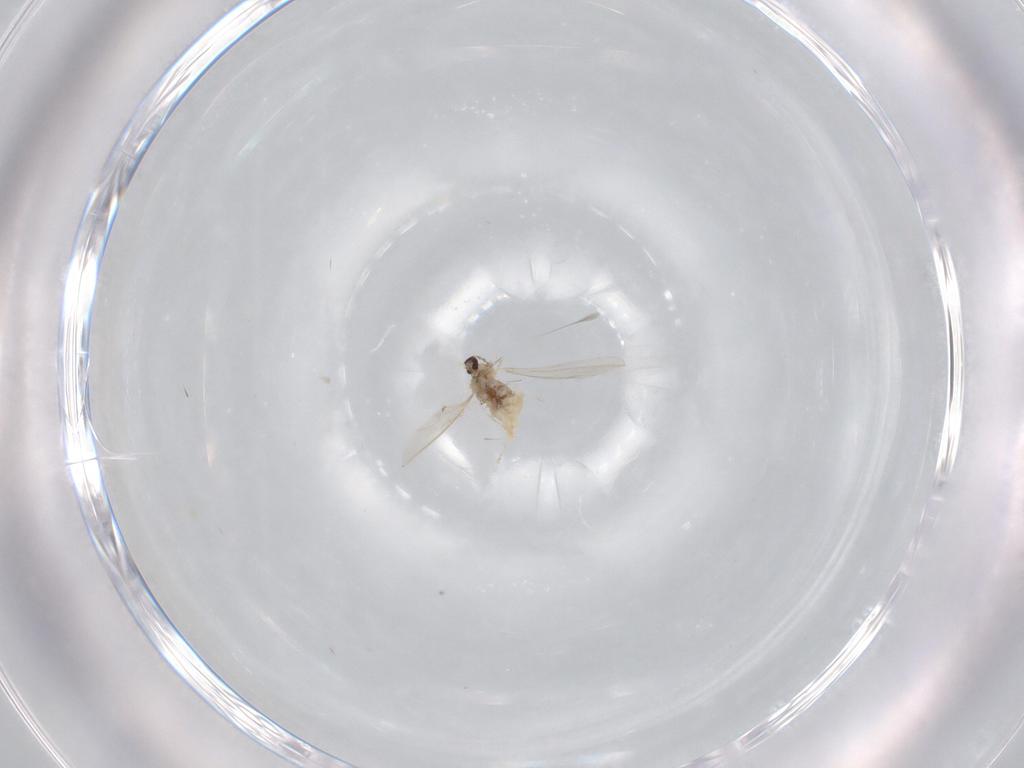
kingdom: Animalia
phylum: Arthropoda
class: Insecta
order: Diptera
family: Cecidomyiidae
